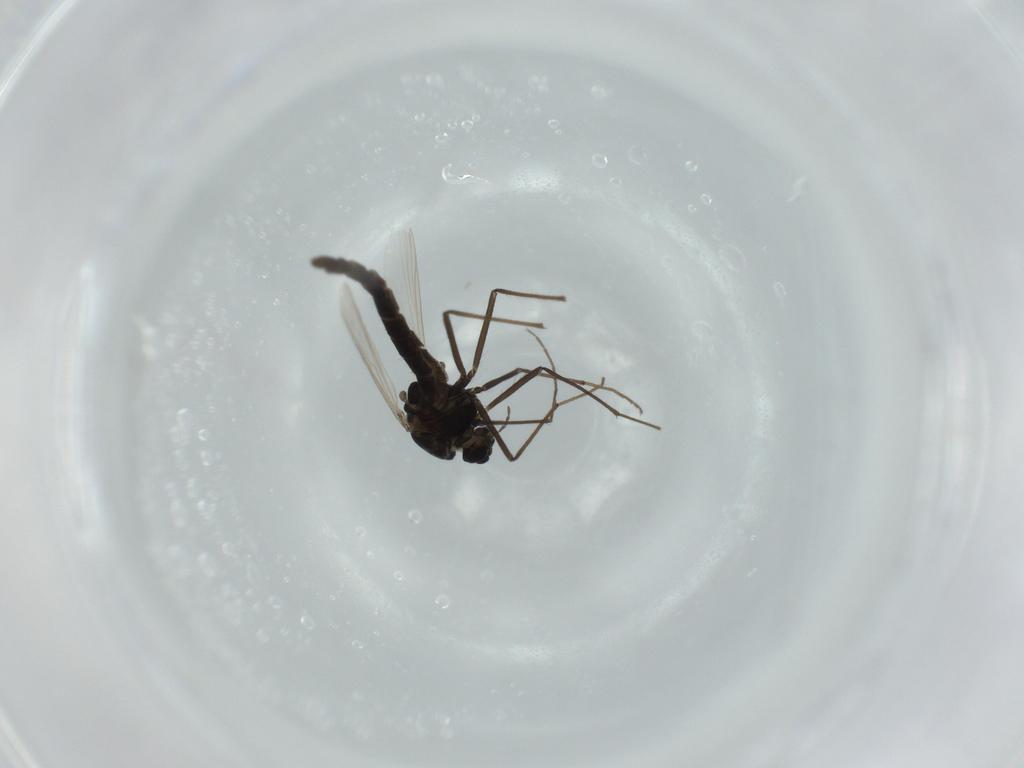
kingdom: Animalia
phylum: Arthropoda
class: Insecta
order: Diptera
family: Chironomidae
